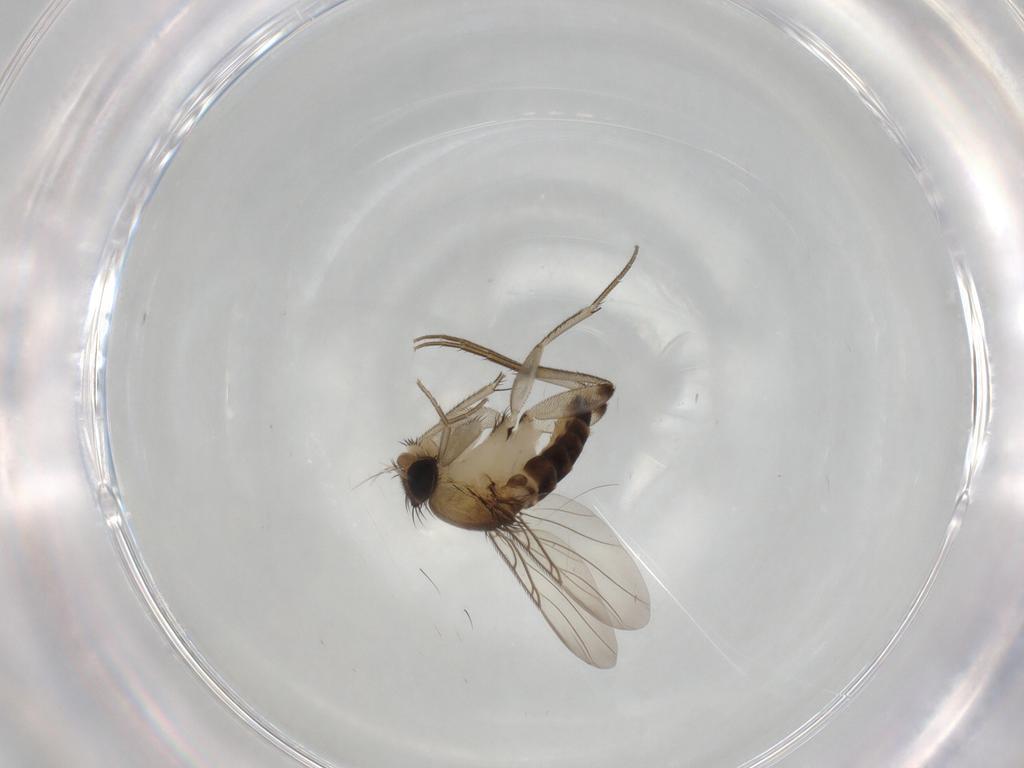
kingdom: Animalia
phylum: Arthropoda
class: Insecta
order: Diptera
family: Phoridae
